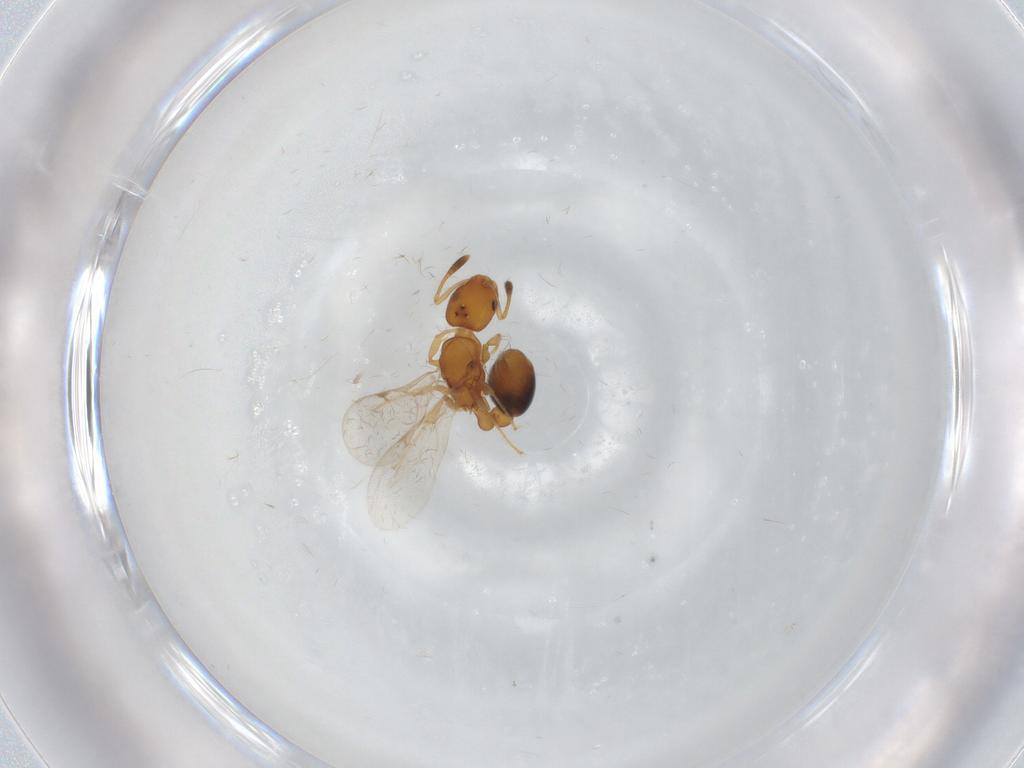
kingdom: Animalia
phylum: Arthropoda
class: Insecta
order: Hymenoptera
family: Formicidae
